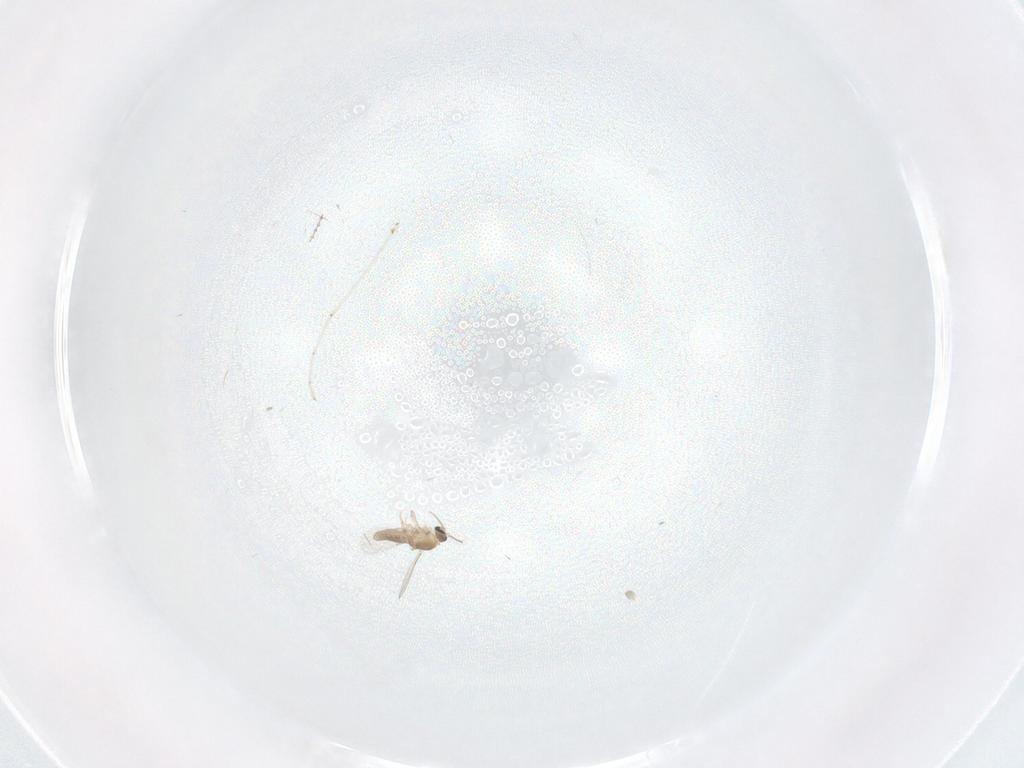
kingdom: Animalia
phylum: Arthropoda
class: Insecta
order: Diptera
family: Ceratopogonidae
